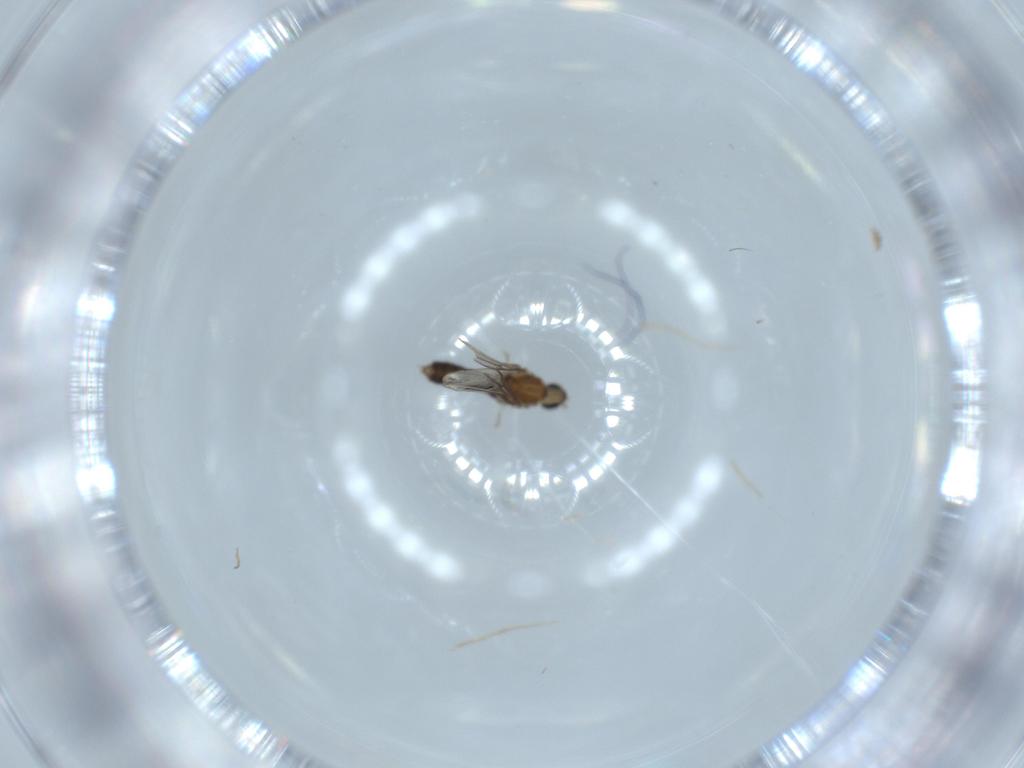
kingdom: Animalia
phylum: Arthropoda
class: Insecta
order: Diptera
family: Cecidomyiidae
